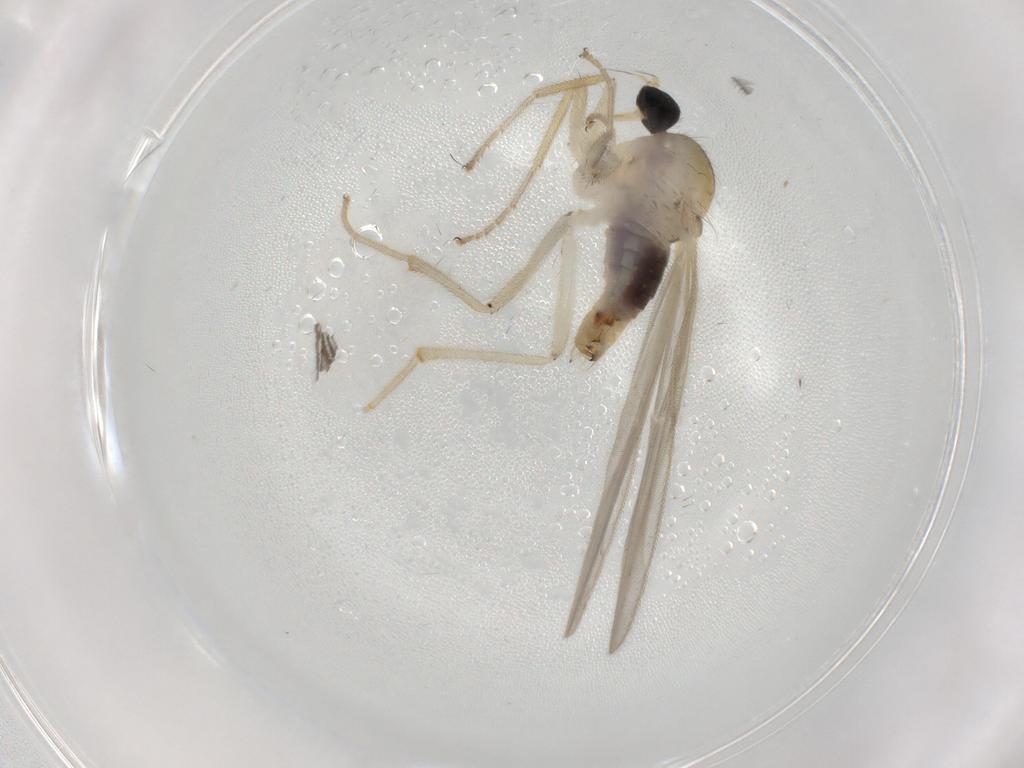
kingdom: Animalia
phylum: Arthropoda
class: Insecta
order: Diptera
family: Hybotidae
